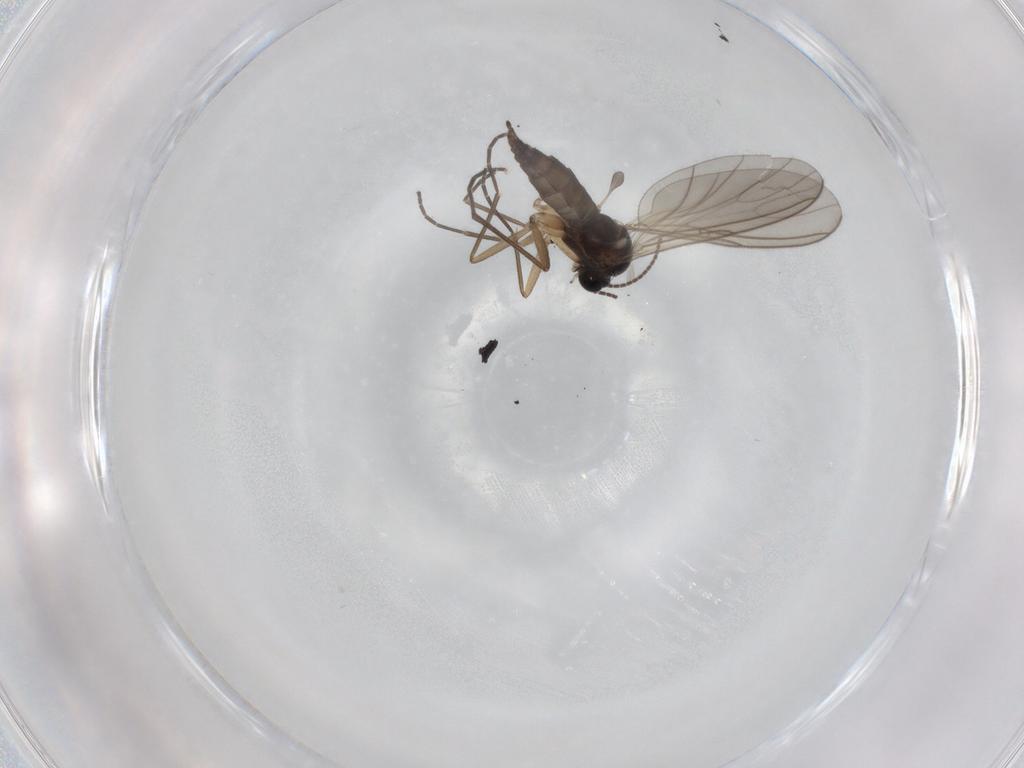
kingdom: Animalia
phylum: Arthropoda
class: Insecta
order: Diptera
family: Sciaridae
